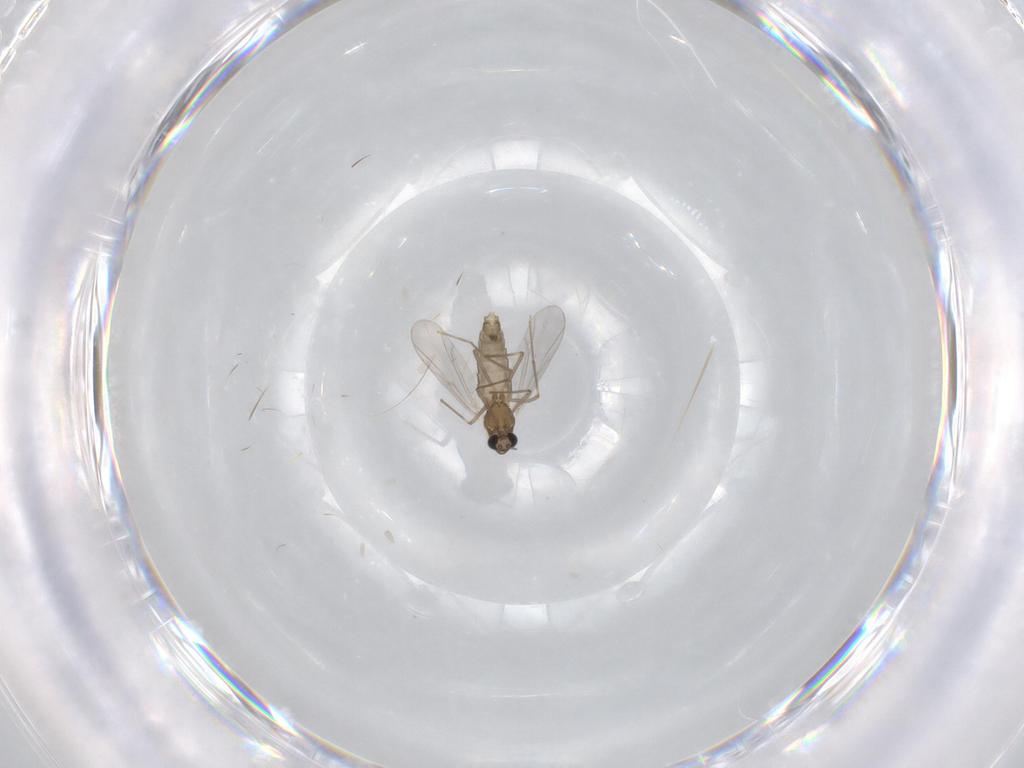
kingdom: Animalia
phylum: Arthropoda
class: Insecta
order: Diptera
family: Chironomidae
